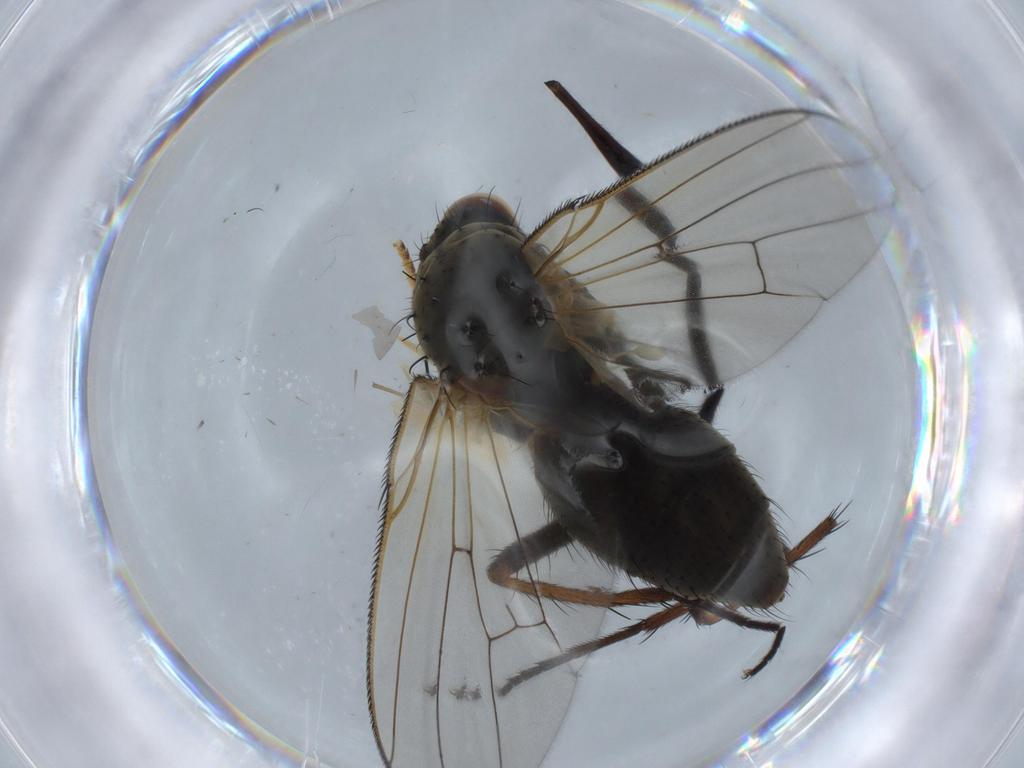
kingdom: Animalia
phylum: Arthropoda
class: Insecta
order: Diptera
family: Anthomyiidae
